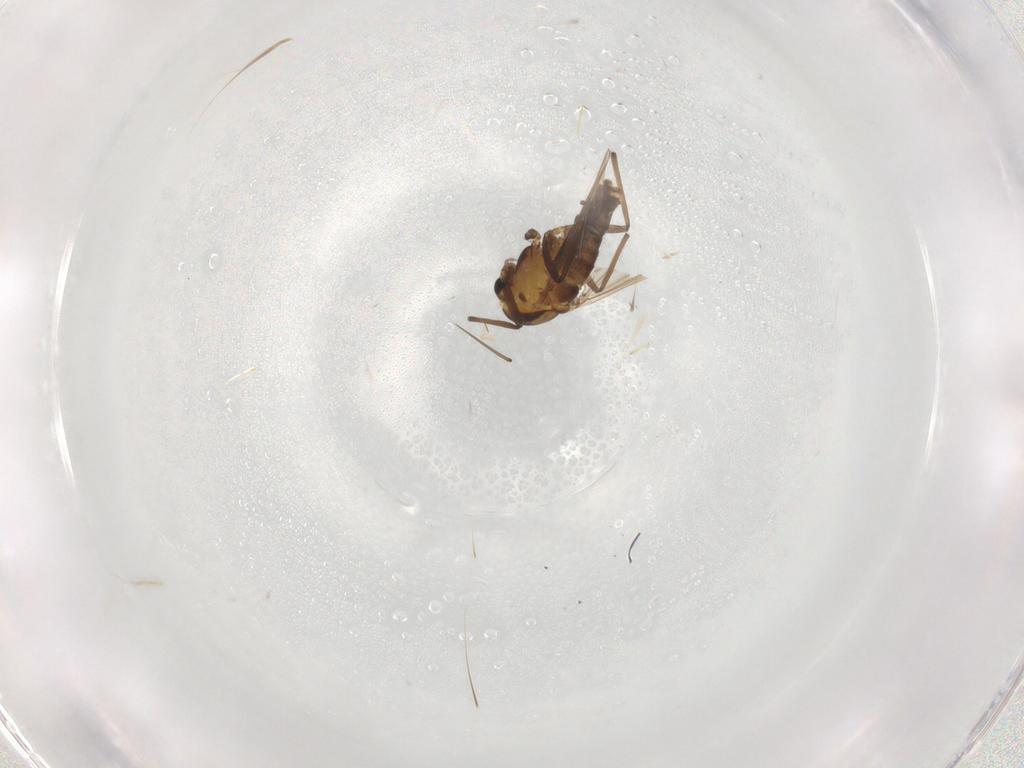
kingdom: Animalia
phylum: Arthropoda
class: Insecta
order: Diptera
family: Chironomidae
